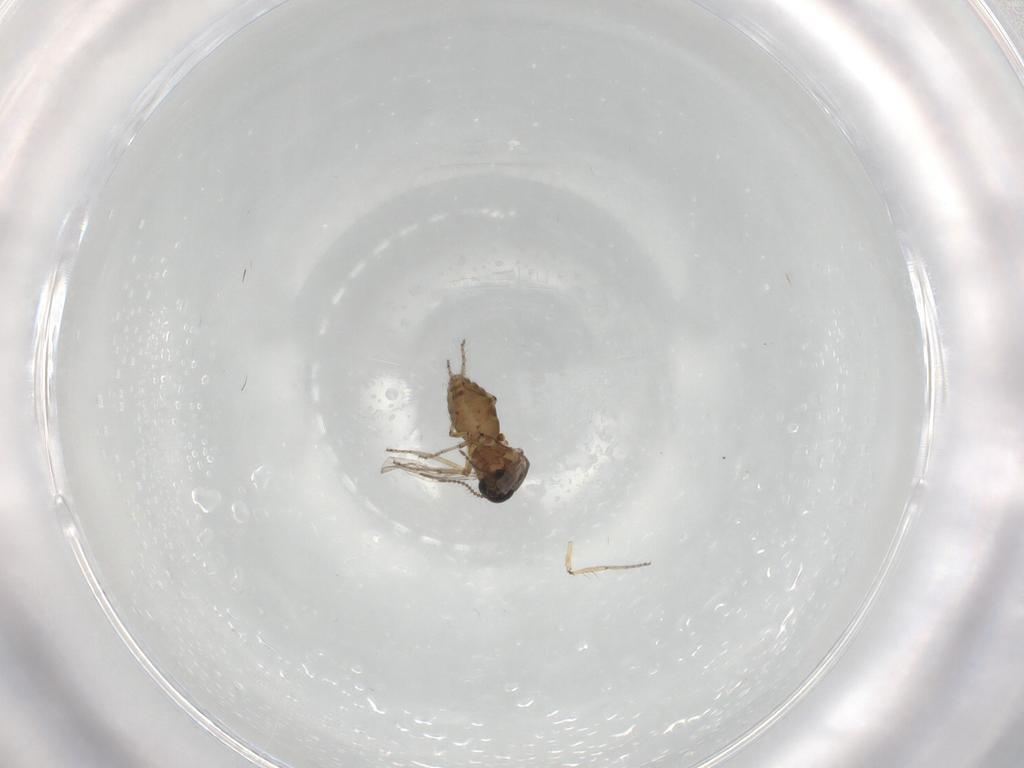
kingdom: Animalia
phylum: Arthropoda
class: Insecta
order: Diptera
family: Ceratopogonidae
